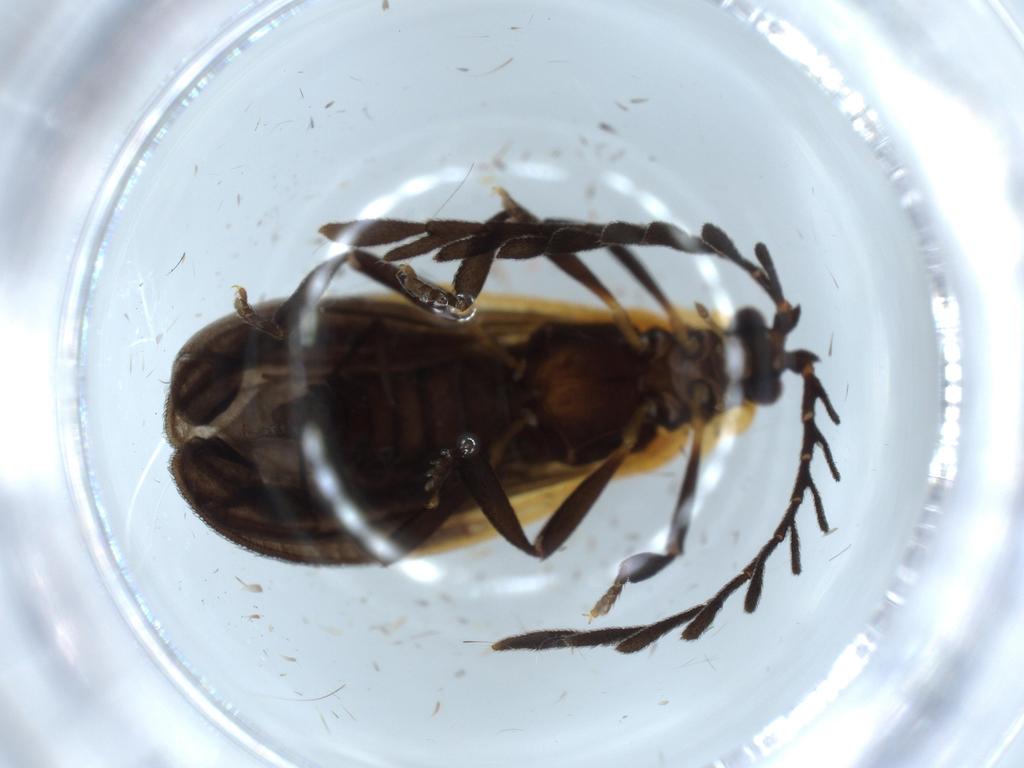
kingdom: Animalia
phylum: Arthropoda
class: Insecta
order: Coleoptera
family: Lycidae
